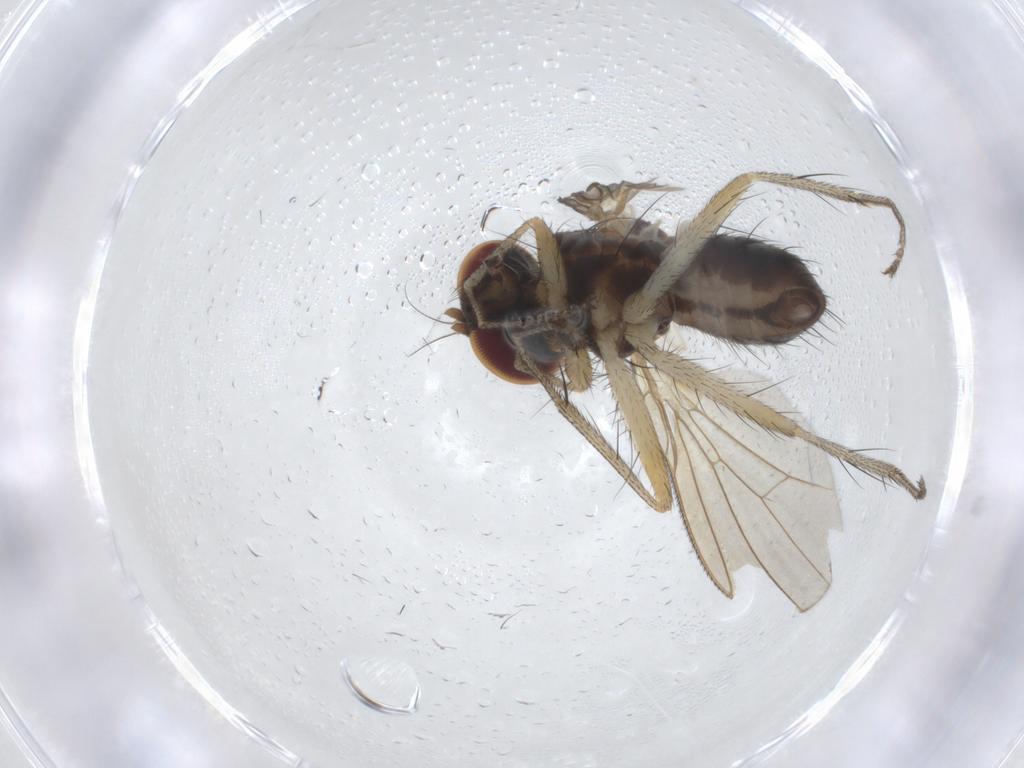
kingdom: Animalia
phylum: Arthropoda
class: Insecta
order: Diptera
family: Anthomyiidae
